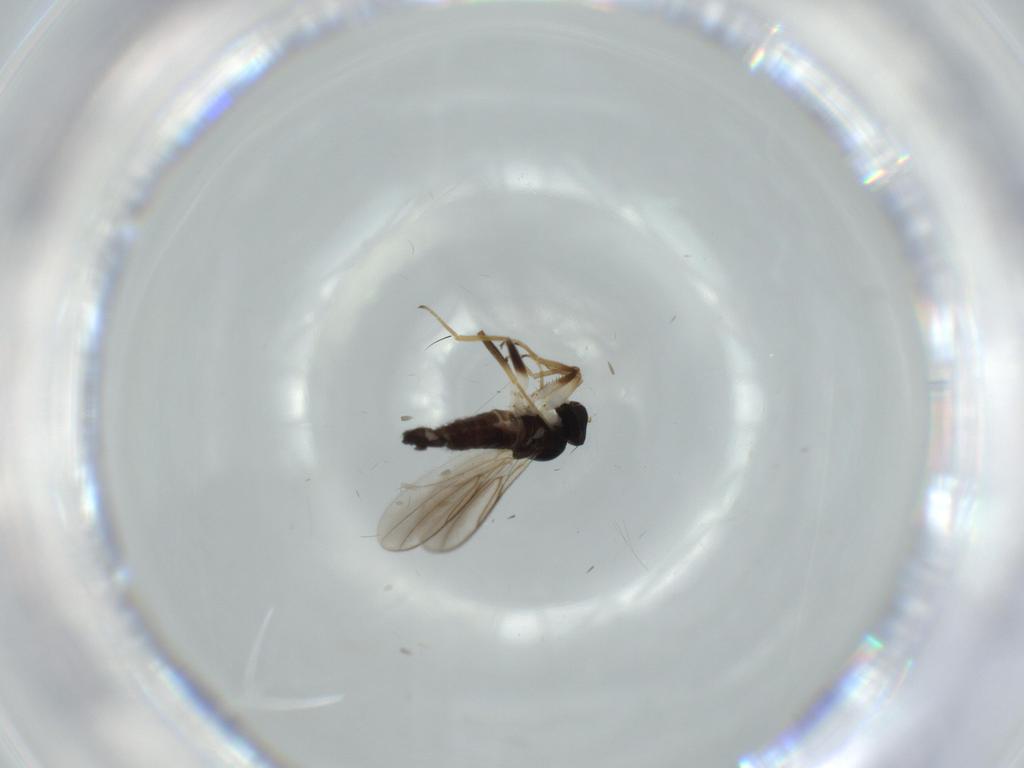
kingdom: Animalia
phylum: Arthropoda
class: Insecta
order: Diptera
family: Hybotidae
